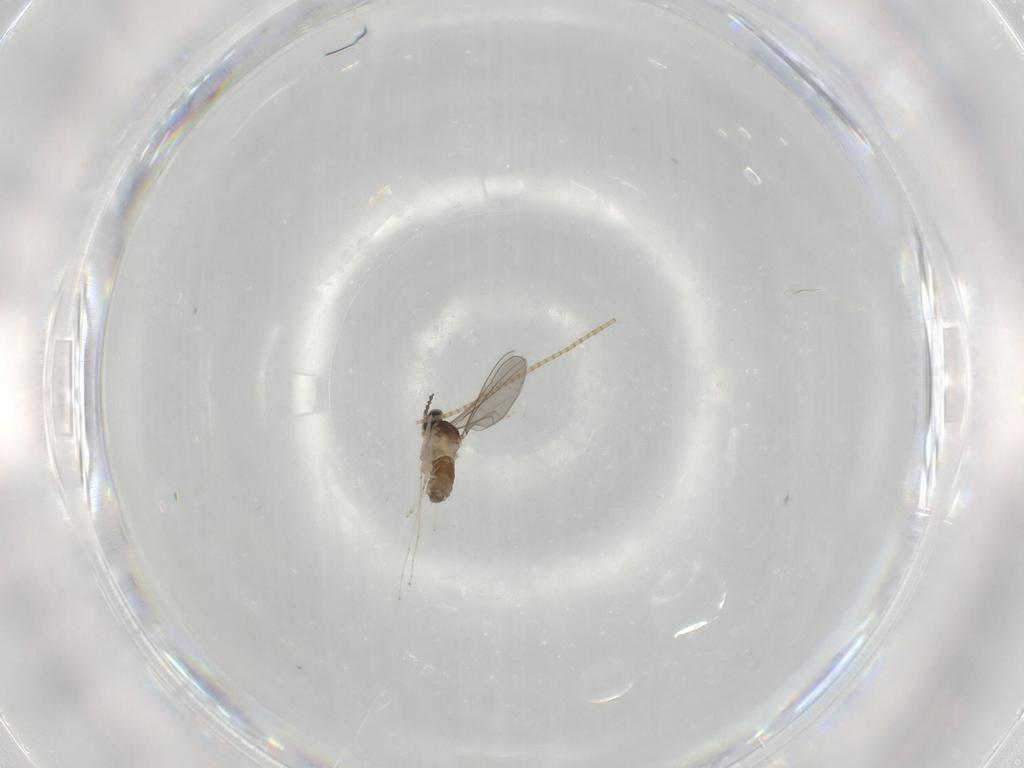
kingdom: Animalia
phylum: Arthropoda
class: Insecta
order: Diptera
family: Cecidomyiidae
